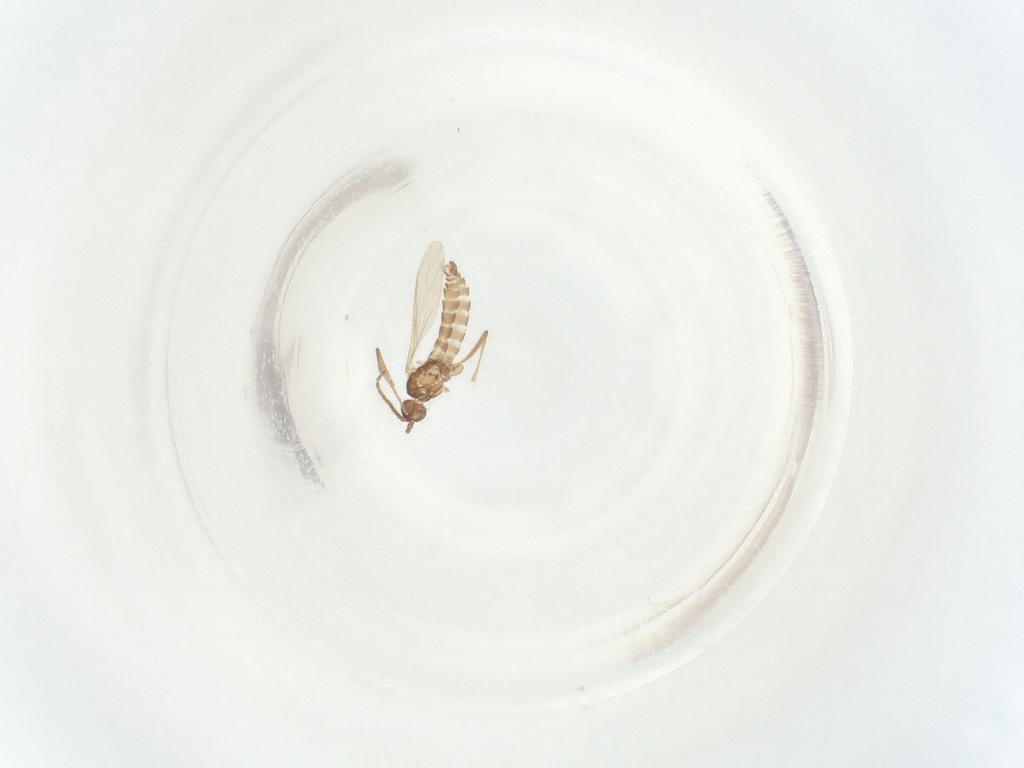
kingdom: Animalia
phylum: Arthropoda
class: Insecta
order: Diptera
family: Sciaridae
